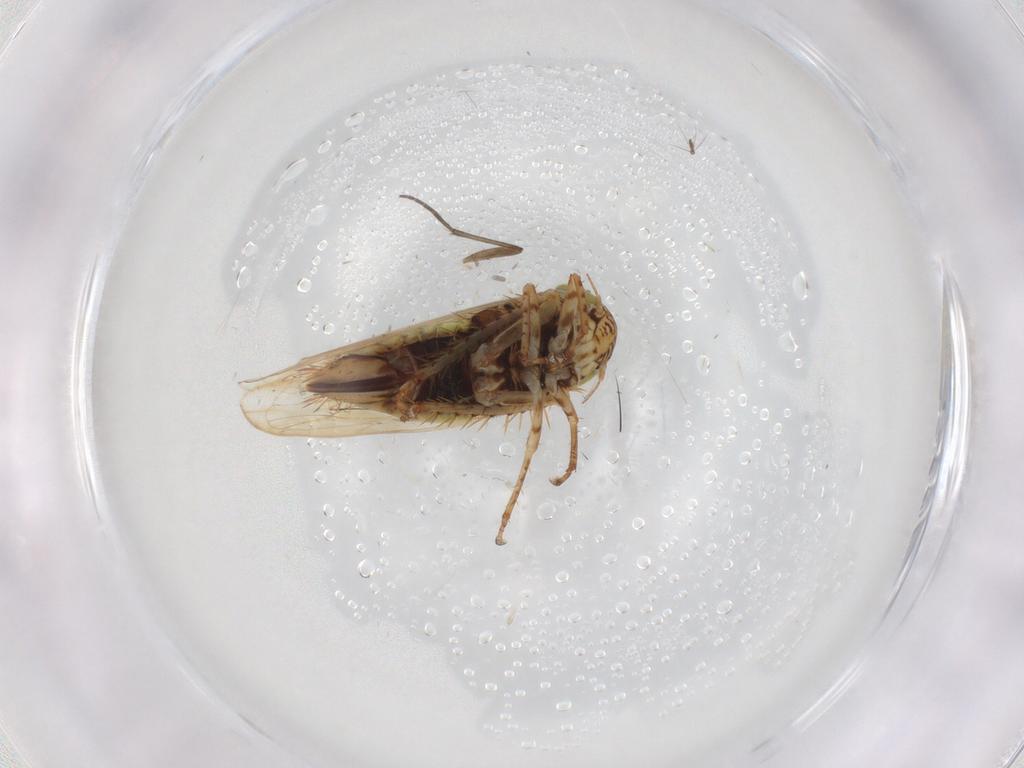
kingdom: Animalia
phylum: Arthropoda
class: Insecta
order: Hemiptera
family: Cicadellidae
